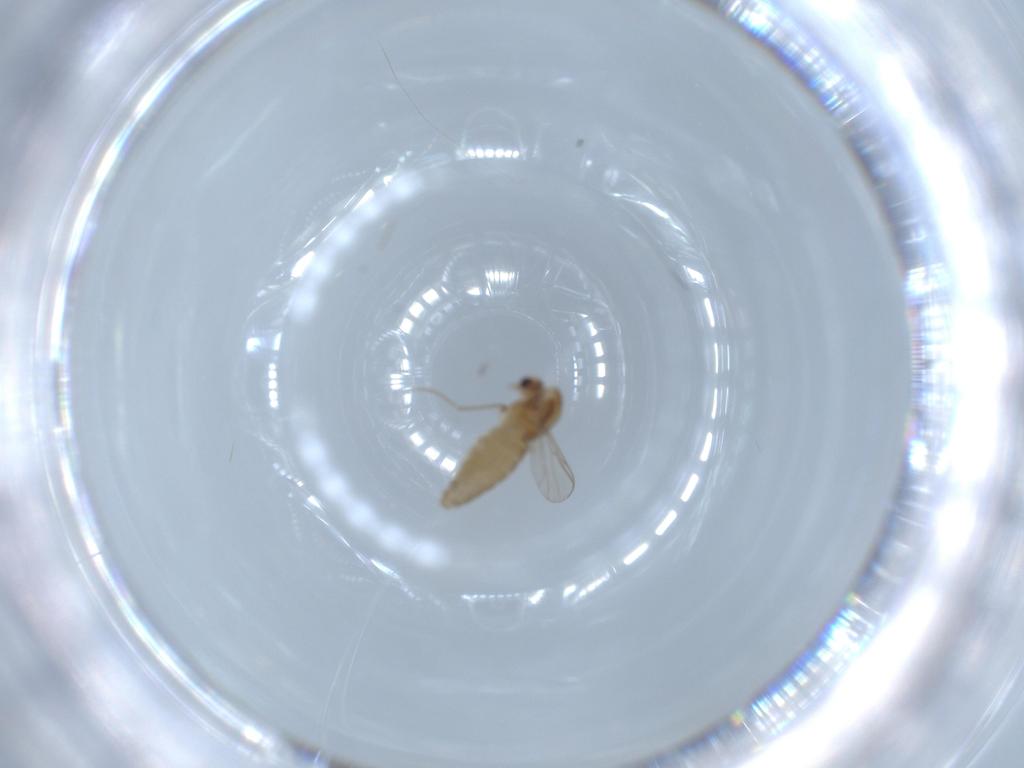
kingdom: Animalia
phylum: Arthropoda
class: Insecta
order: Diptera
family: Chironomidae
